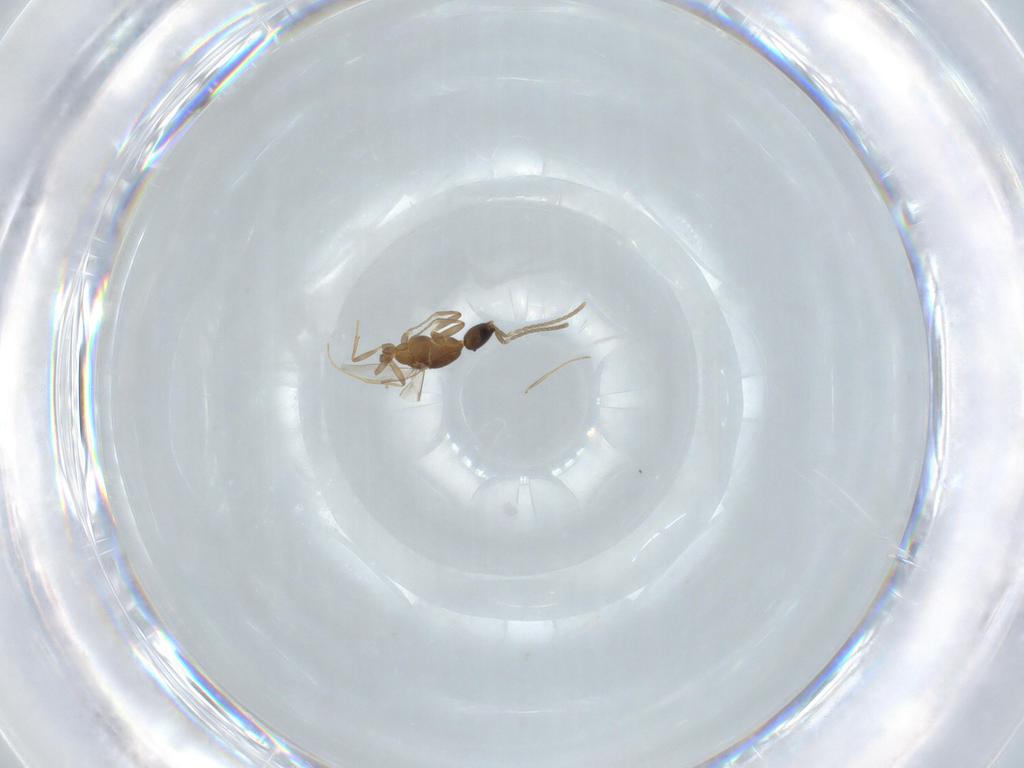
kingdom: Animalia
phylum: Arthropoda
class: Insecta
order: Hymenoptera
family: Formicidae
